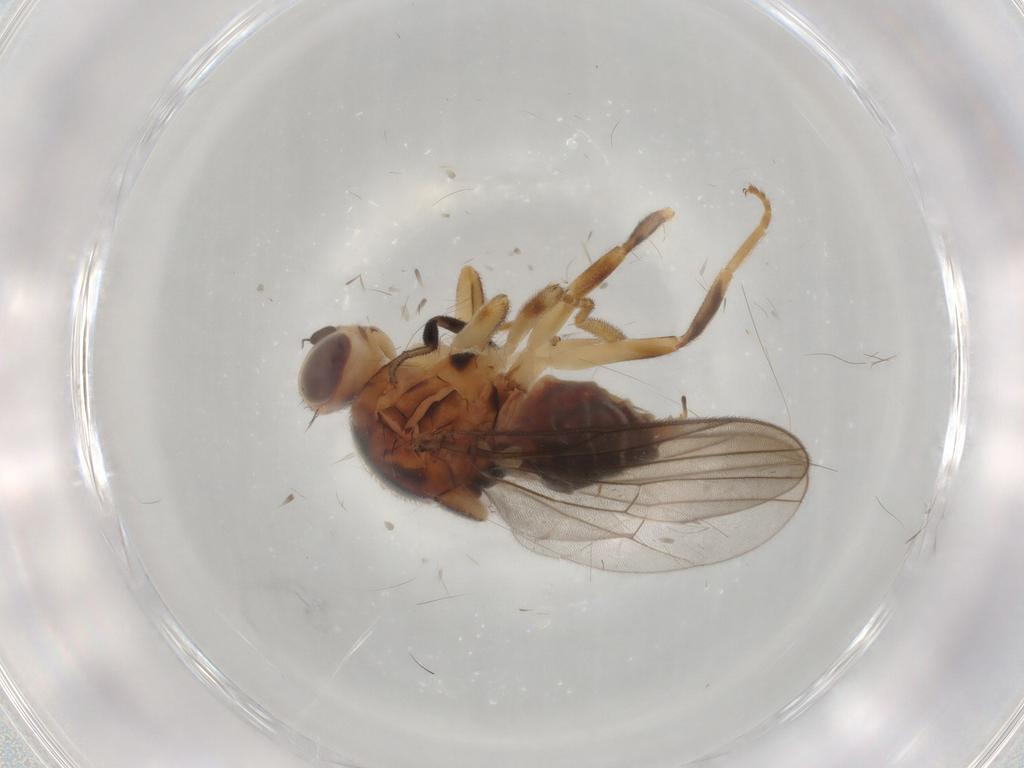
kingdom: Animalia
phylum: Arthropoda
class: Insecta
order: Diptera
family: Chloropidae
